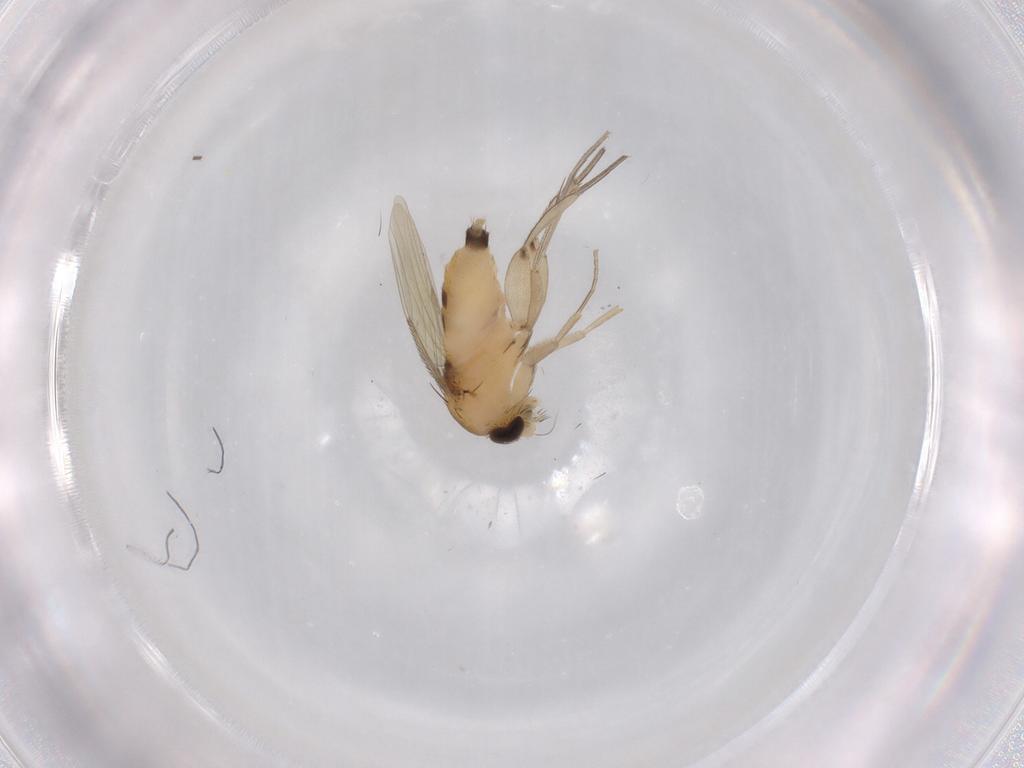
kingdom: Animalia
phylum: Arthropoda
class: Insecta
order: Diptera
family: Sciaridae
